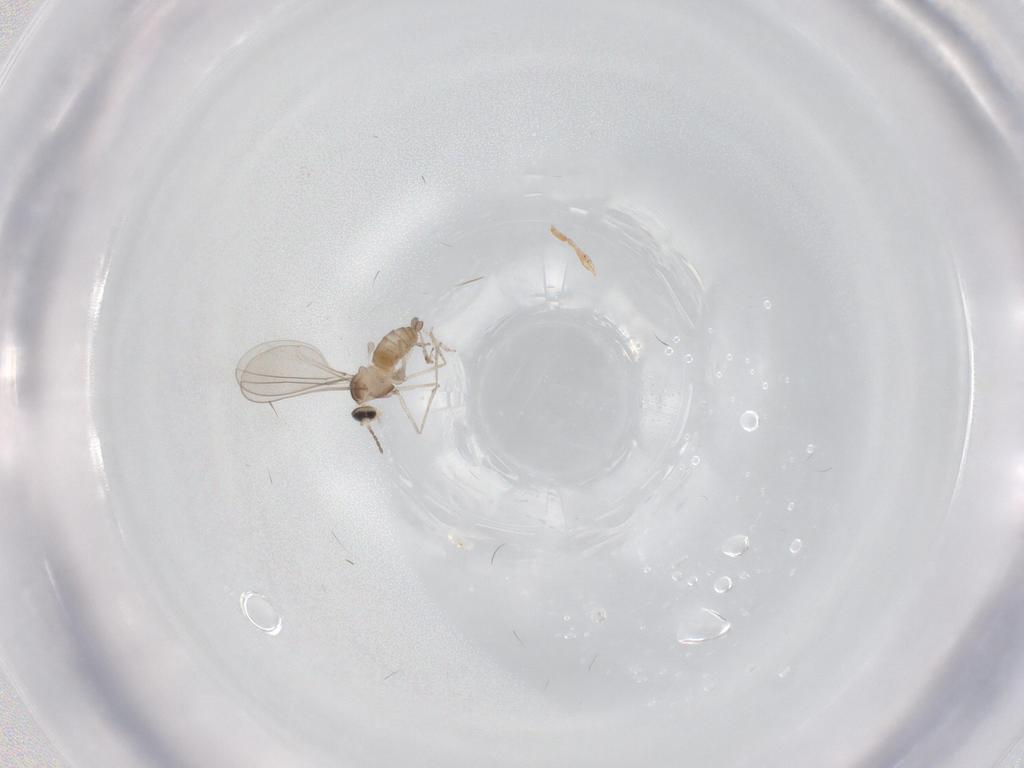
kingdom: Animalia
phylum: Arthropoda
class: Insecta
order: Diptera
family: Cecidomyiidae
